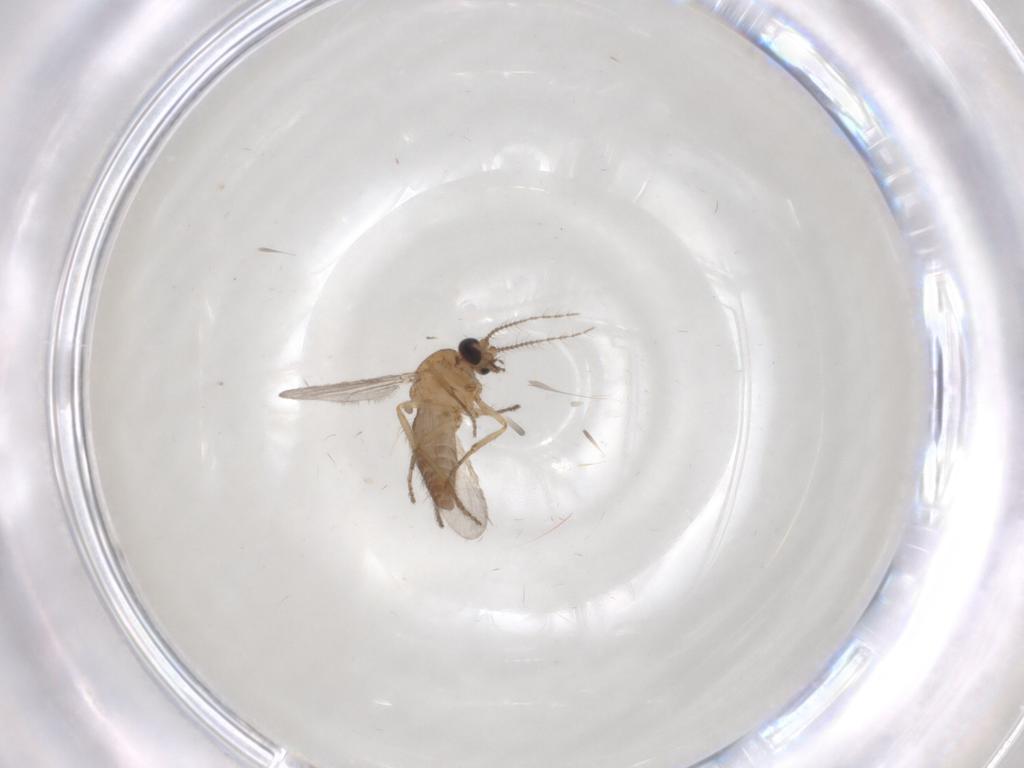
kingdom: Animalia
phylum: Arthropoda
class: Insecta
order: Diptera
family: Ceratopogonidae
